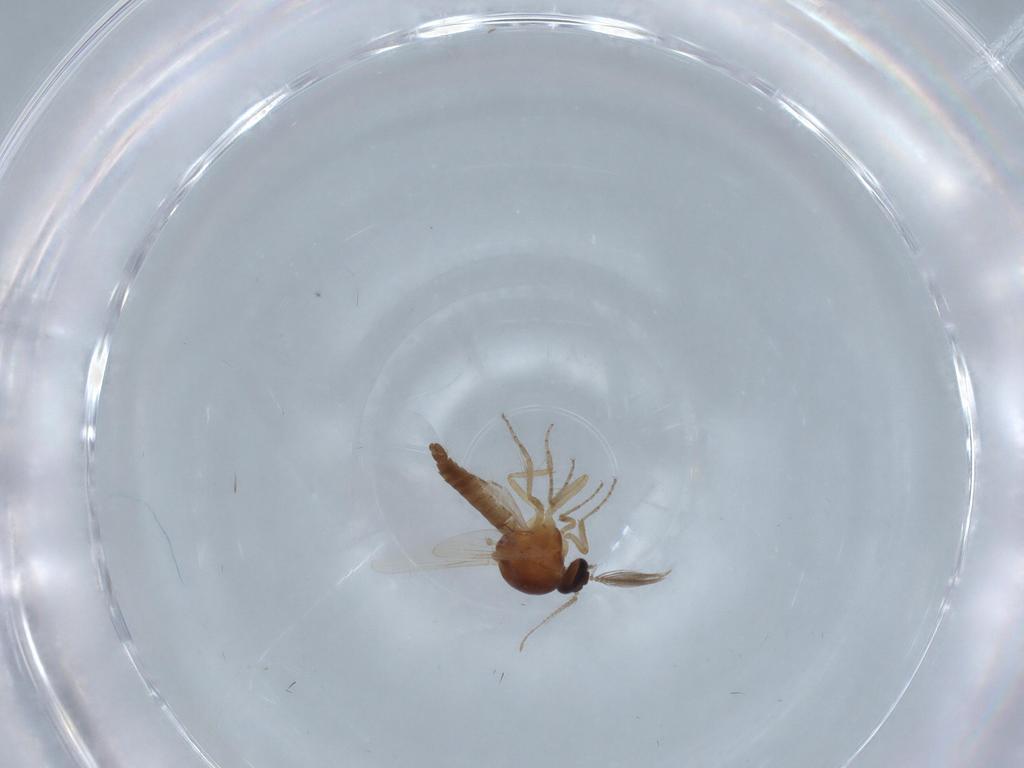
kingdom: Animalia
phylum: Arthropoda
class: Insecta
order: Diptera
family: Ceratopogonidae
